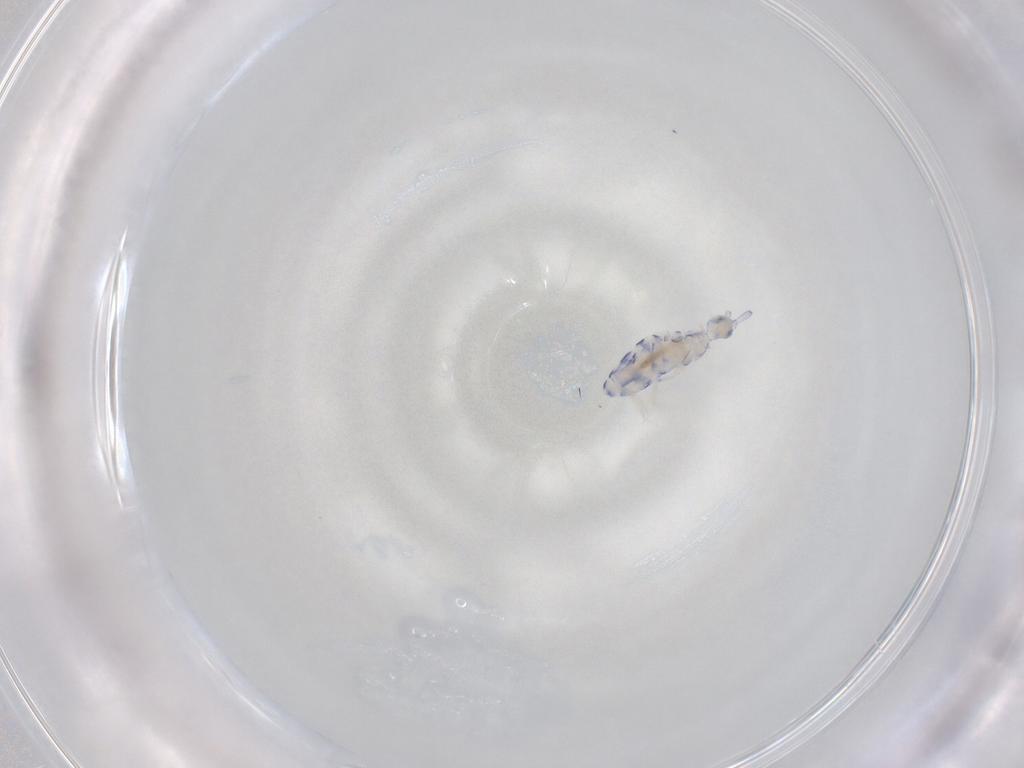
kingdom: Animalia
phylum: Arthropoda
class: Collembola
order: Entomobryomorpha
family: Entomobryidae
